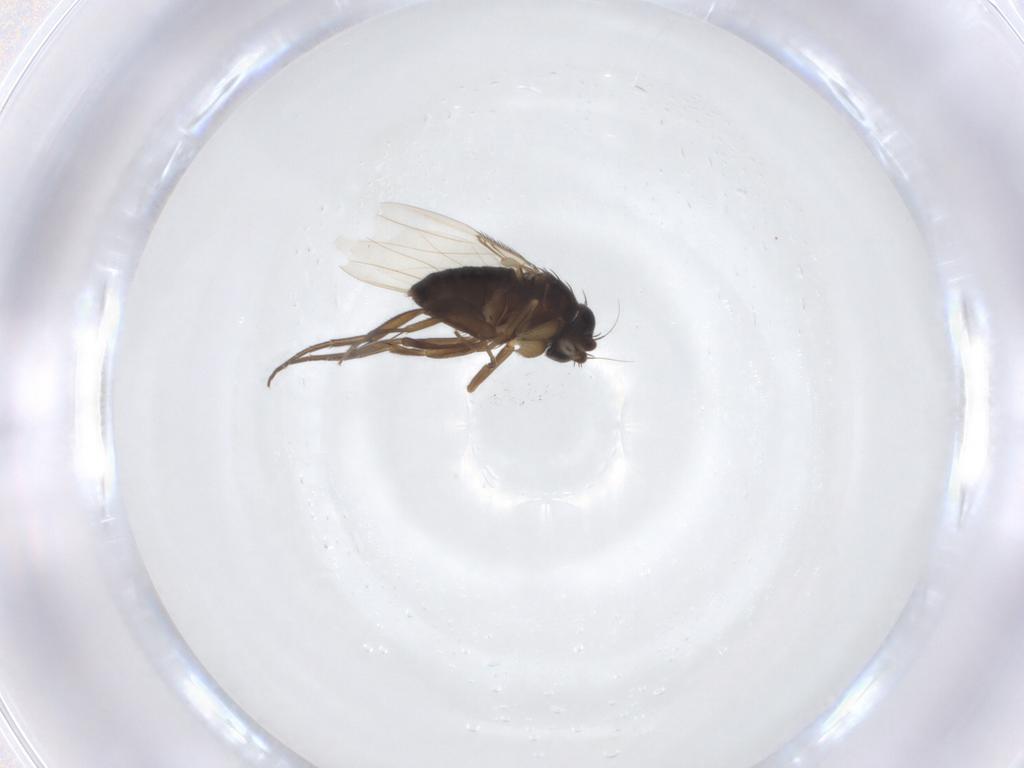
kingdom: Animalia
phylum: Arthropoda
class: Insecta
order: Diptera
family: Phoridae
